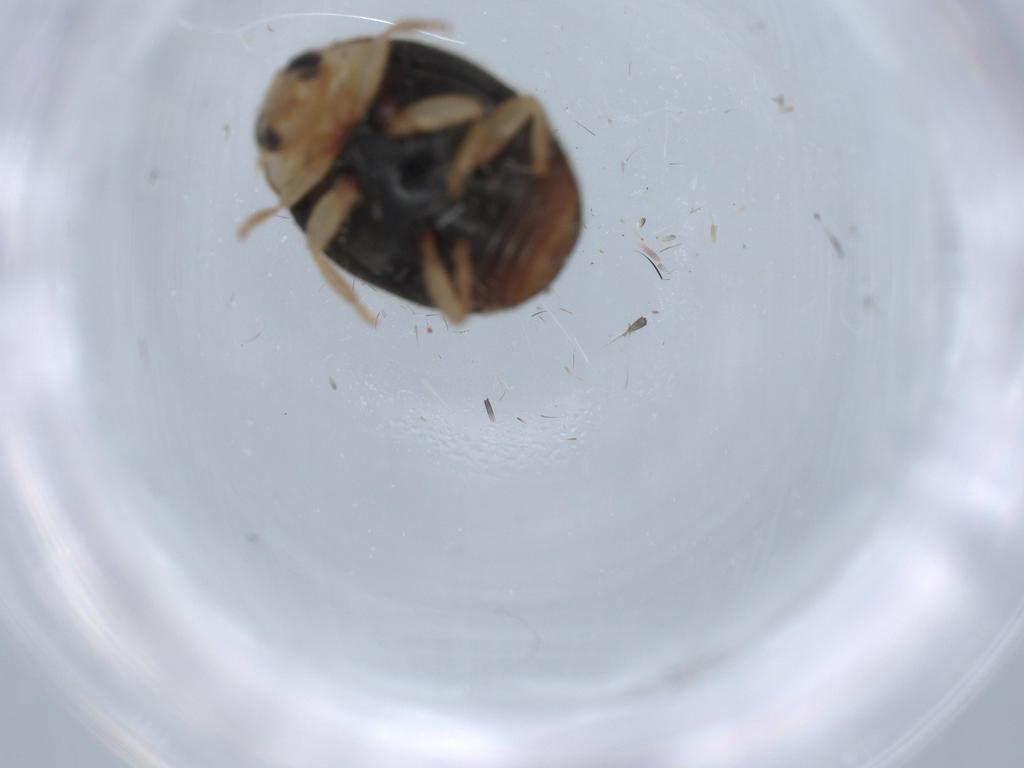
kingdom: Animalia
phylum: Arthropoda
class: Insecta
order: Coleoptera
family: Coccinellidae
